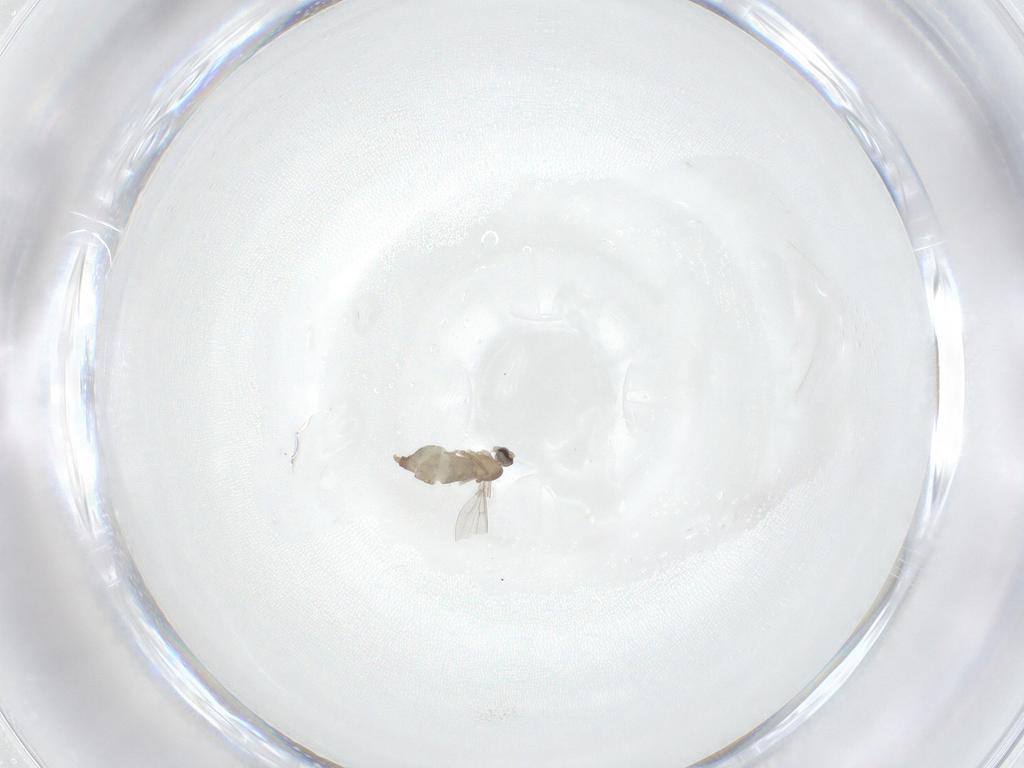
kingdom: Animalia
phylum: Arthropoda
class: Insecta
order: Diptera
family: Cecidomyiidae
